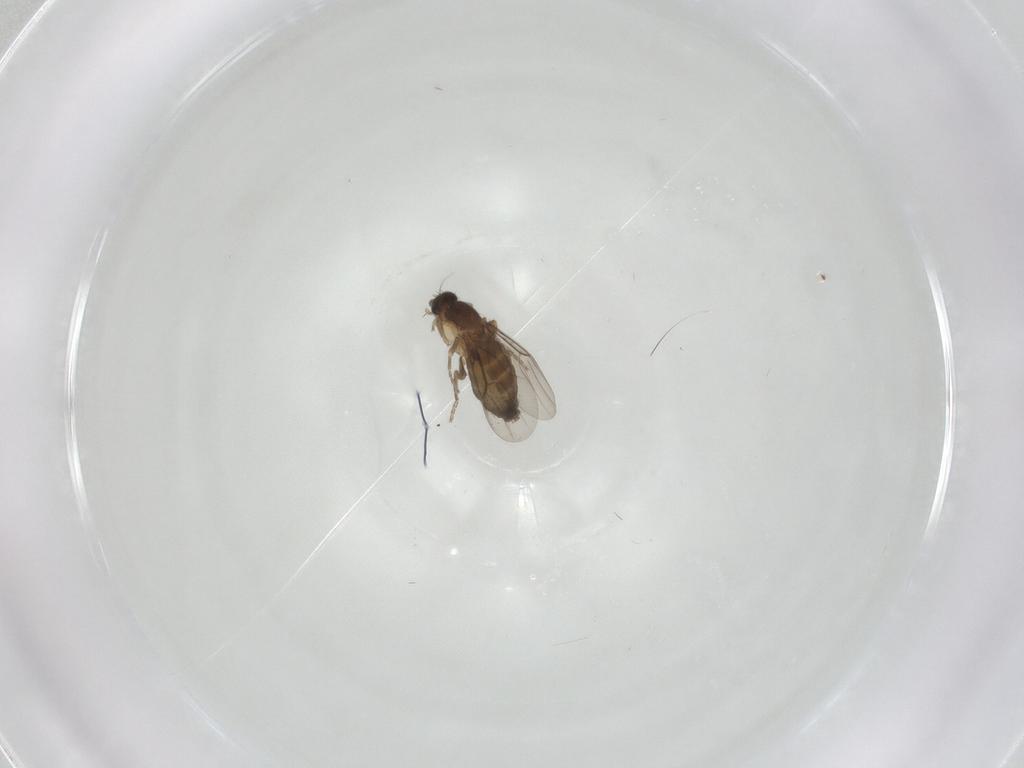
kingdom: Animalia
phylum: Arthropoda
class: Insecta
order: Diptera
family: Phoridae
